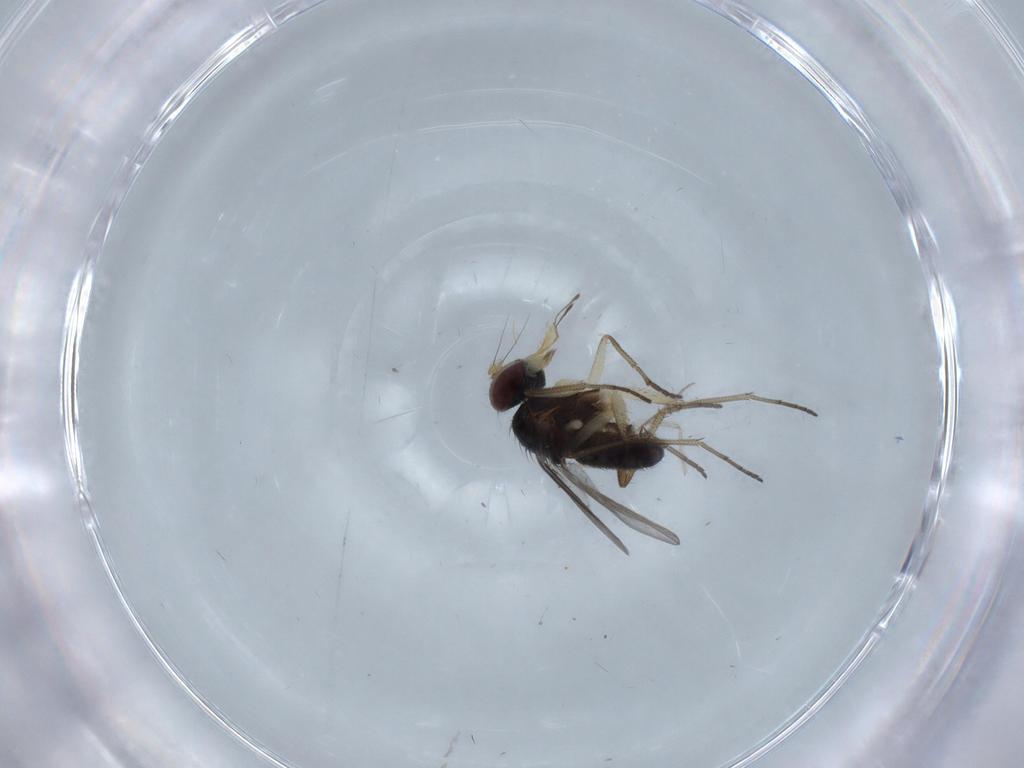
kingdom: Animalia
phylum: Arthropoda
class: Insecta
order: Diptera
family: Dolichopodidae
